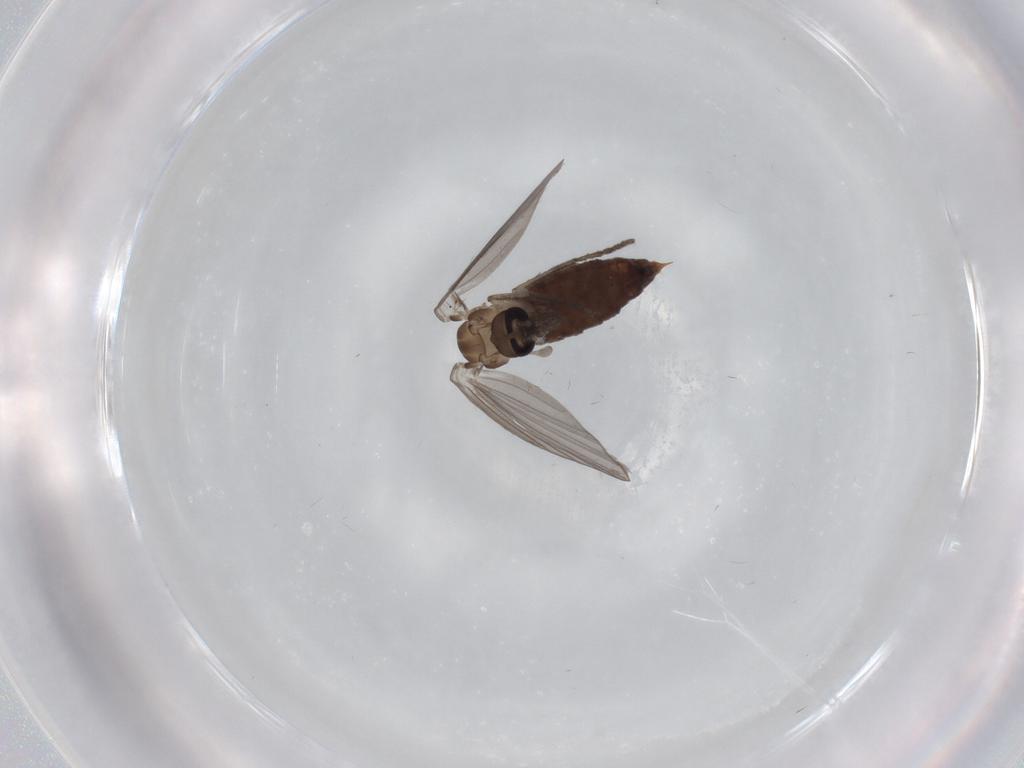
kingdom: Animalia
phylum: Arthropoda
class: Insecta
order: Diptera
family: Psychodidae
